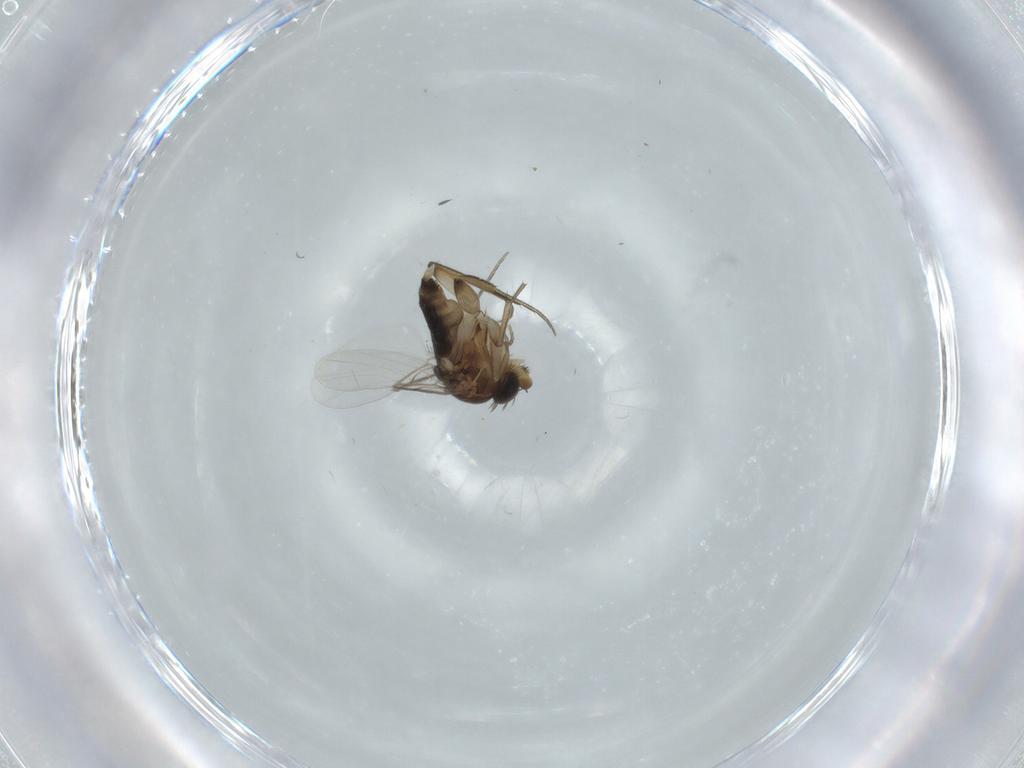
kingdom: Animalia
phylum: Arthropoda
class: Insecta
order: Diptera
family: Phoridae
